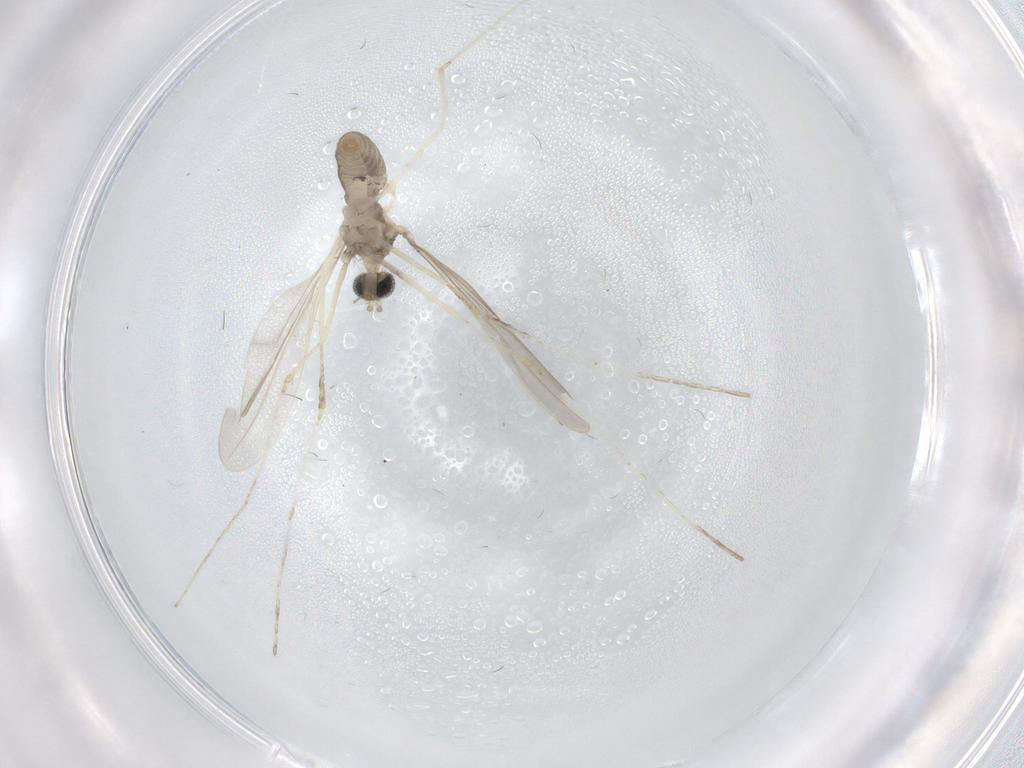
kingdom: Animalia
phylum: Arthropoda
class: Insecta
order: Diptera
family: Cecidomyiidae
